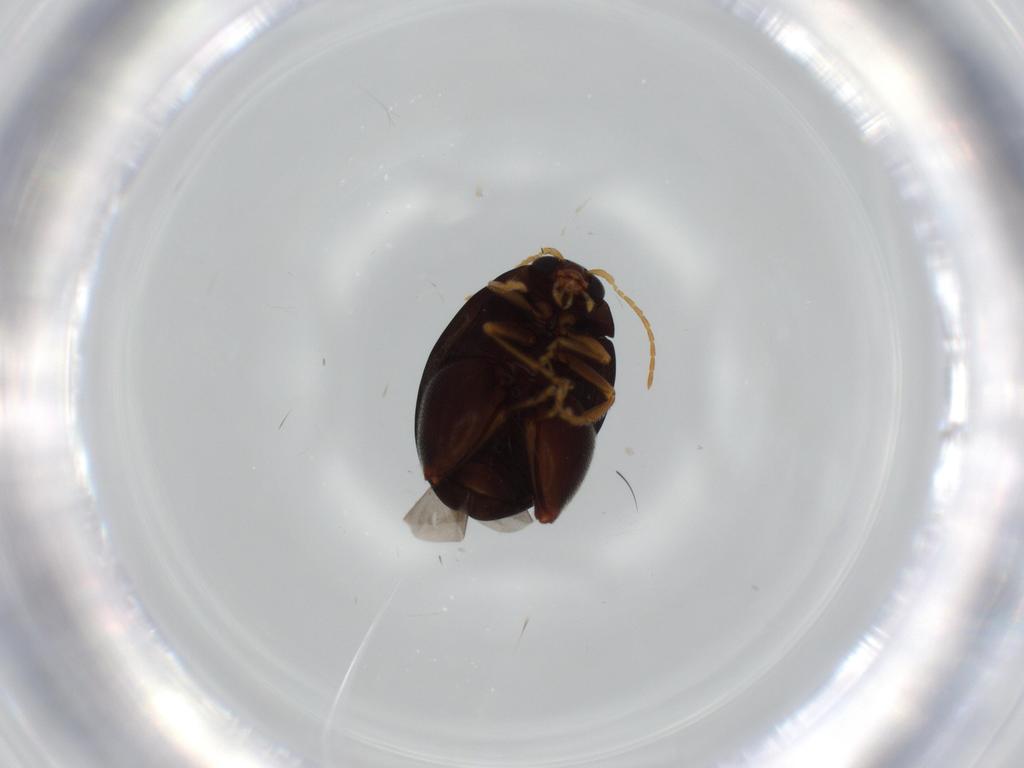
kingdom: Animalia
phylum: Arthropoda
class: Insecta
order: Coleoptera
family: Chrysomelidae
